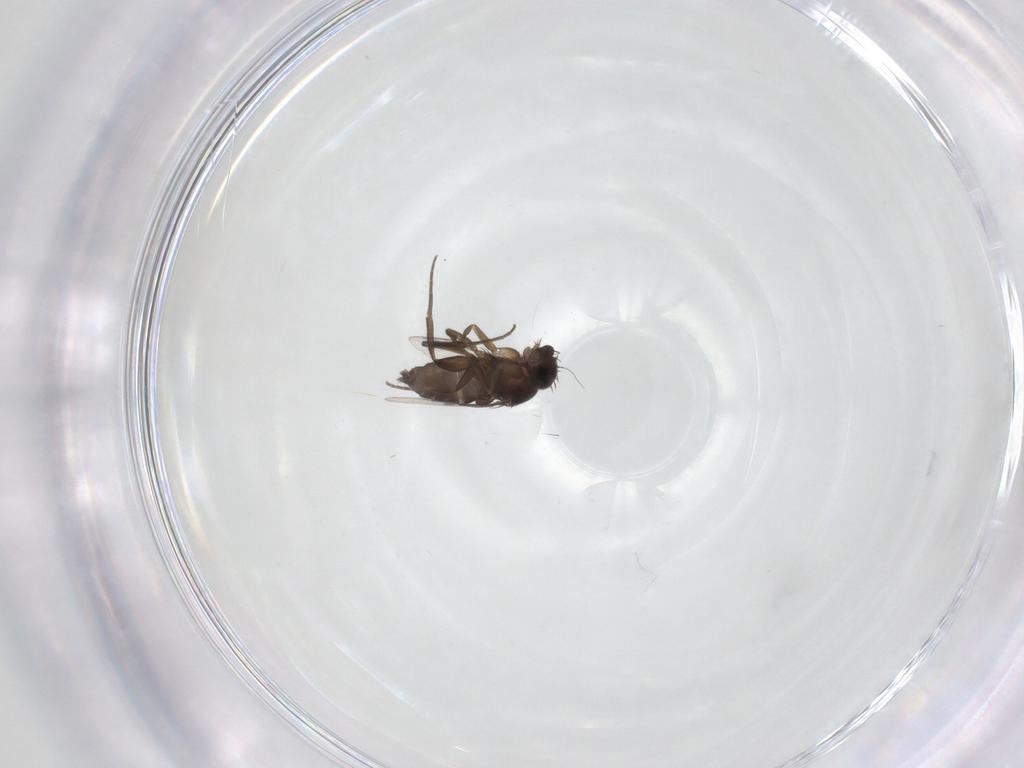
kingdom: Animalia
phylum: Arthropoda
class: Insecta
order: Diptera
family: Phoridae
